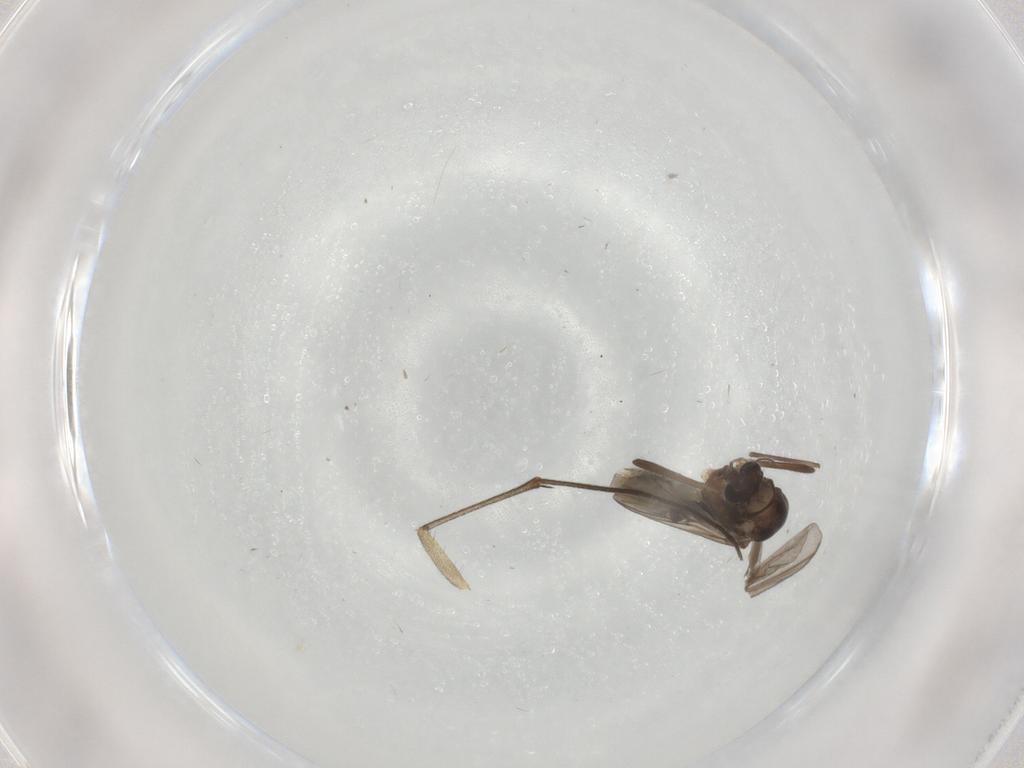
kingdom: Animalia
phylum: Arthropoda
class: Insecta
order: Diptera
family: Chironomidae
